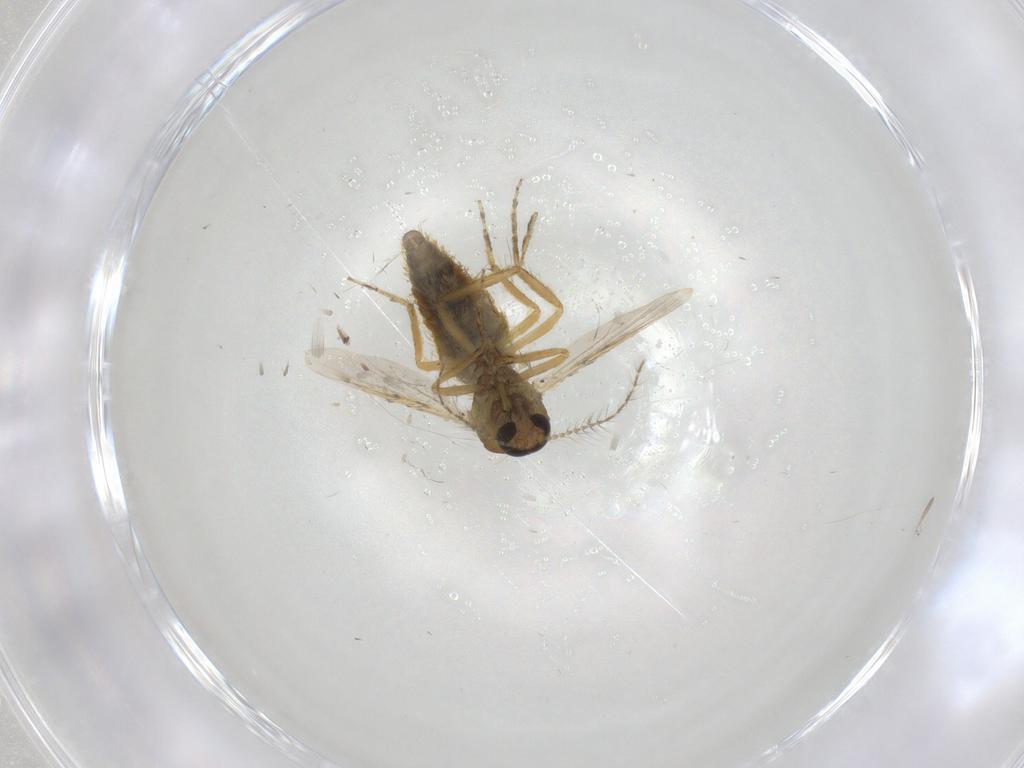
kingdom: Animalia
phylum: Arthropoda
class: Insecta
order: Diptera
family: Ceratopogonidae
